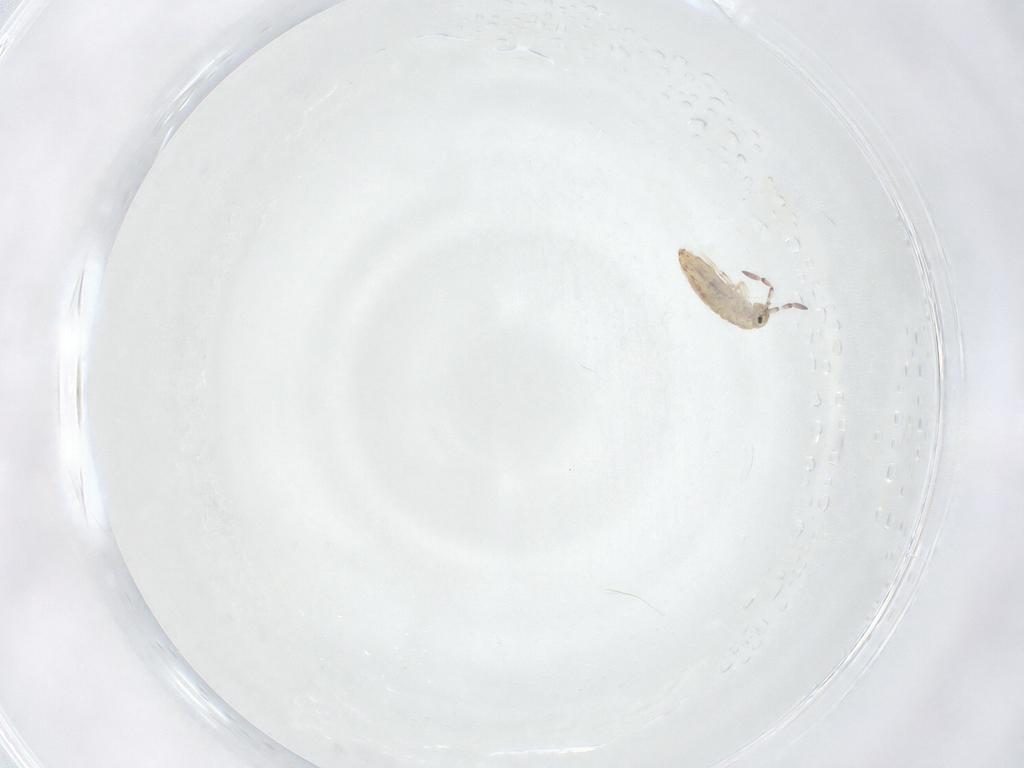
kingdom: Animalia
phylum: Arthropoda
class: Collembola
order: Entomobryomorpha
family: Entomobryidae
